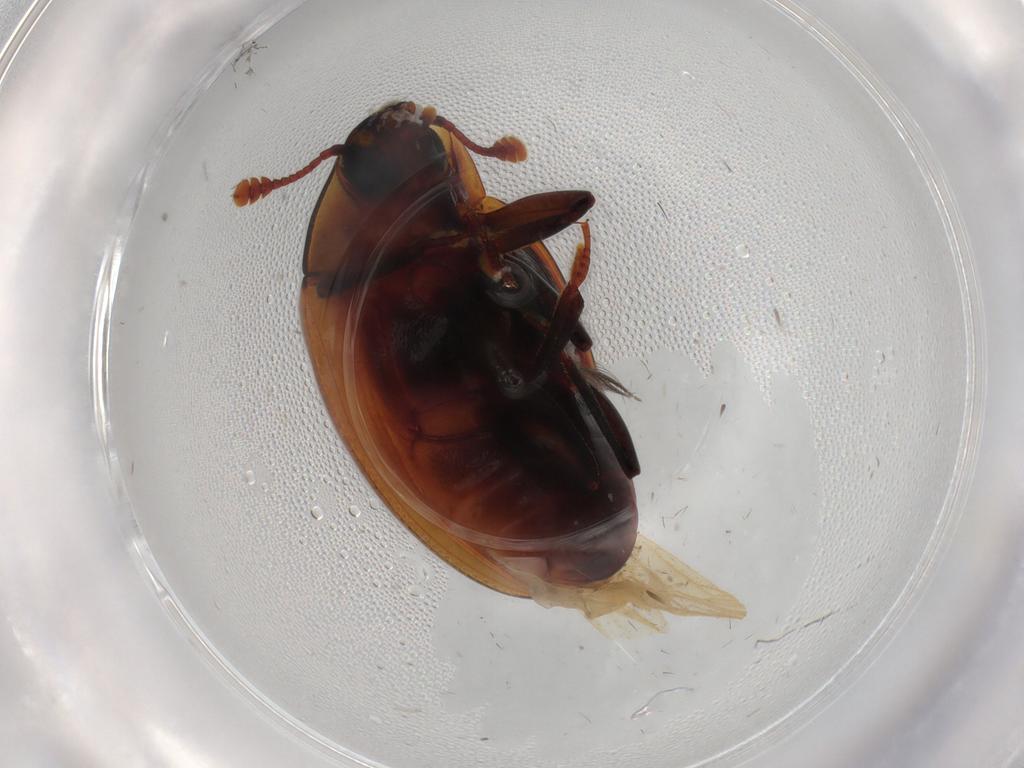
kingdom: Animalia
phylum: Arthropoda
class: Insecta
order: Coleoptera
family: Zopheridae
